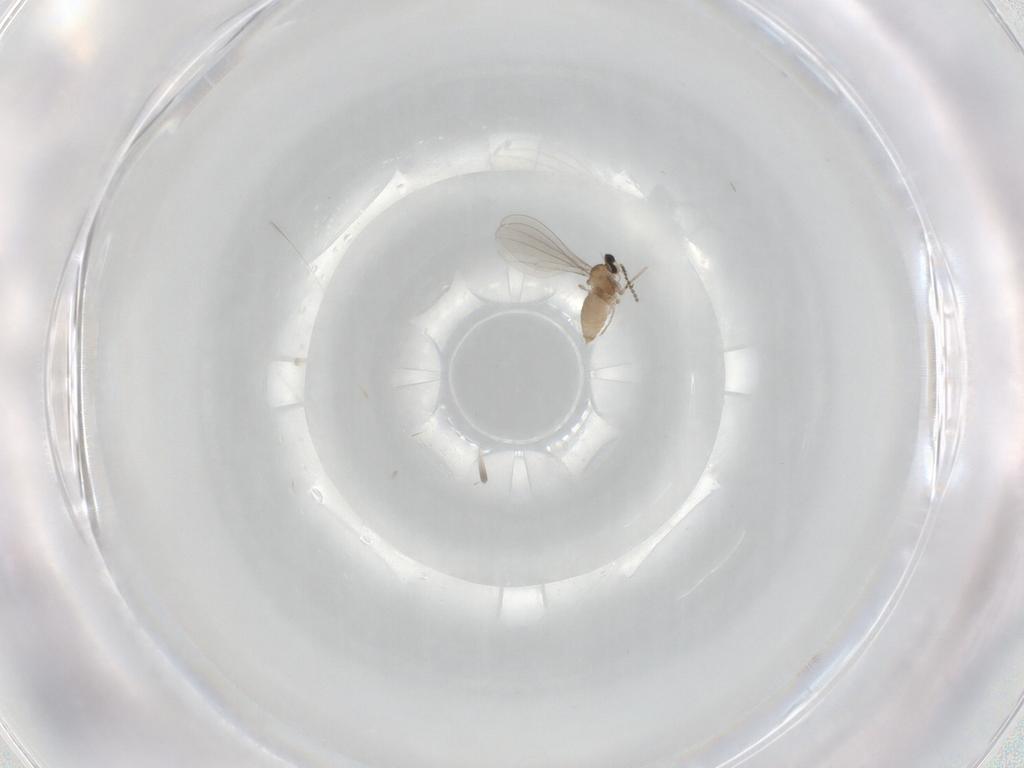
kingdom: Animalia
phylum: Arthropoda
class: Insecta
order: Diptera
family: Cecidomyiidae
